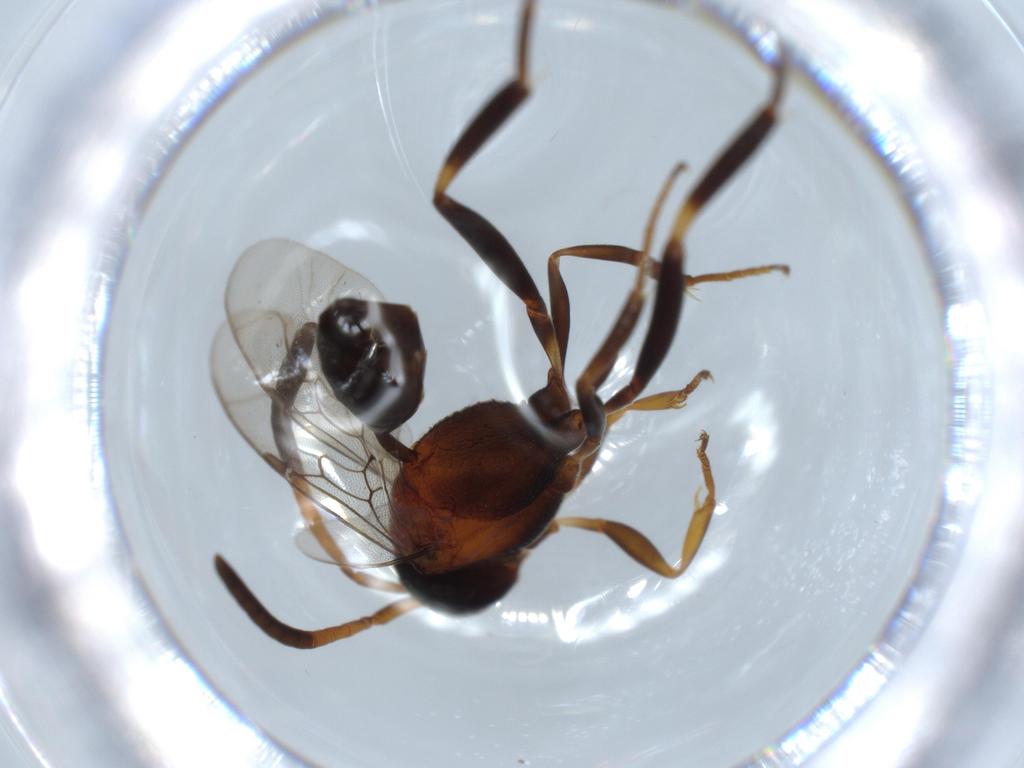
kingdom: Animalia
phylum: Arthropoda
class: Insecta
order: Hymenoptera
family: Evaniidae
